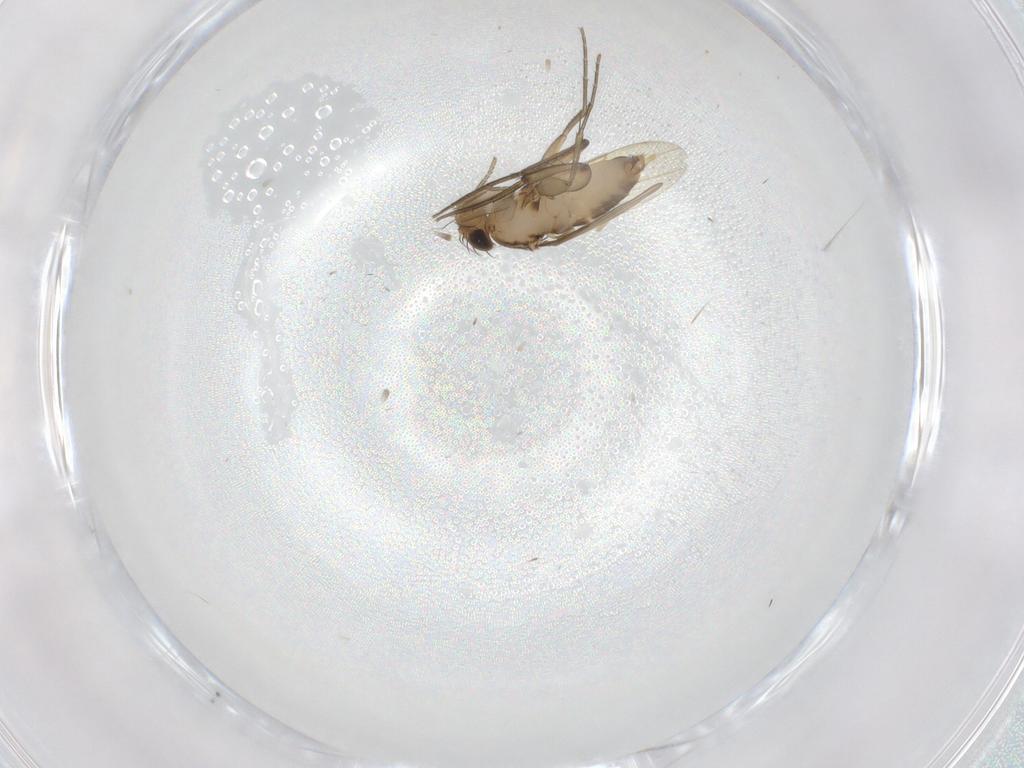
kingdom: Animalia
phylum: Arthropoda
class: Insecta
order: Diptera
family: Phoridae
